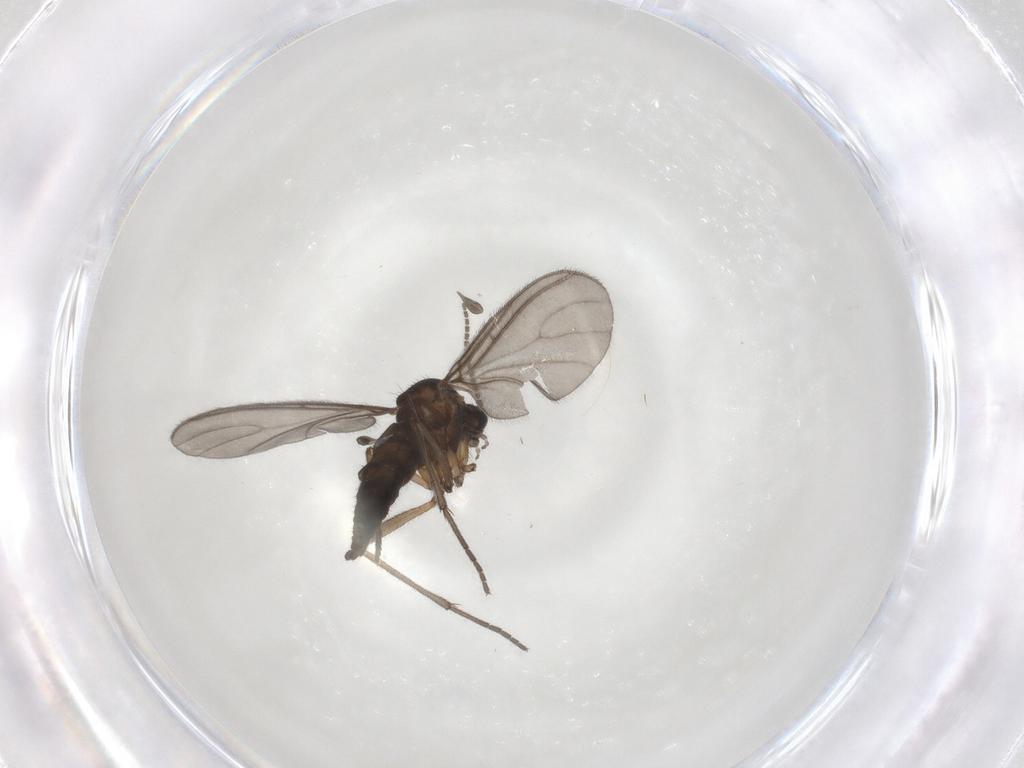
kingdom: Animalia
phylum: Arthropoda
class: Insecta
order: Diptera
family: Sciaridae
